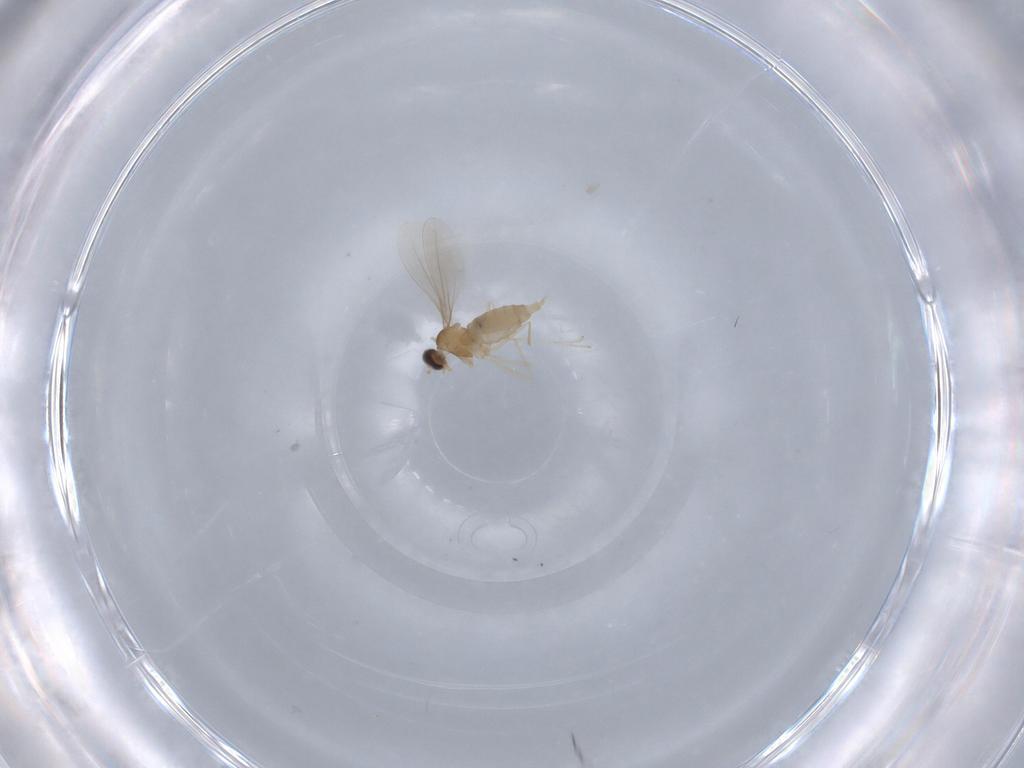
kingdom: Animalia
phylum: Arthropoda
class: Insecta
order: Diptera
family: Cecidomyiidae
